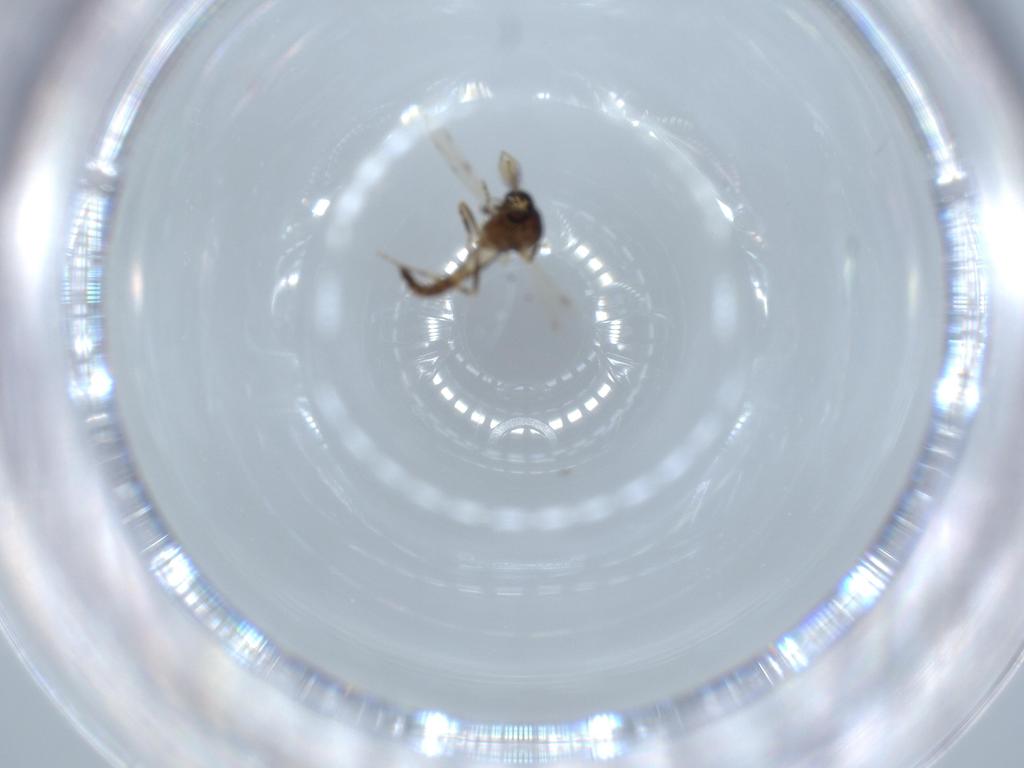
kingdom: Animalia
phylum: Arthropoda
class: Insecta
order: Diptera
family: Ceratopogonidae
